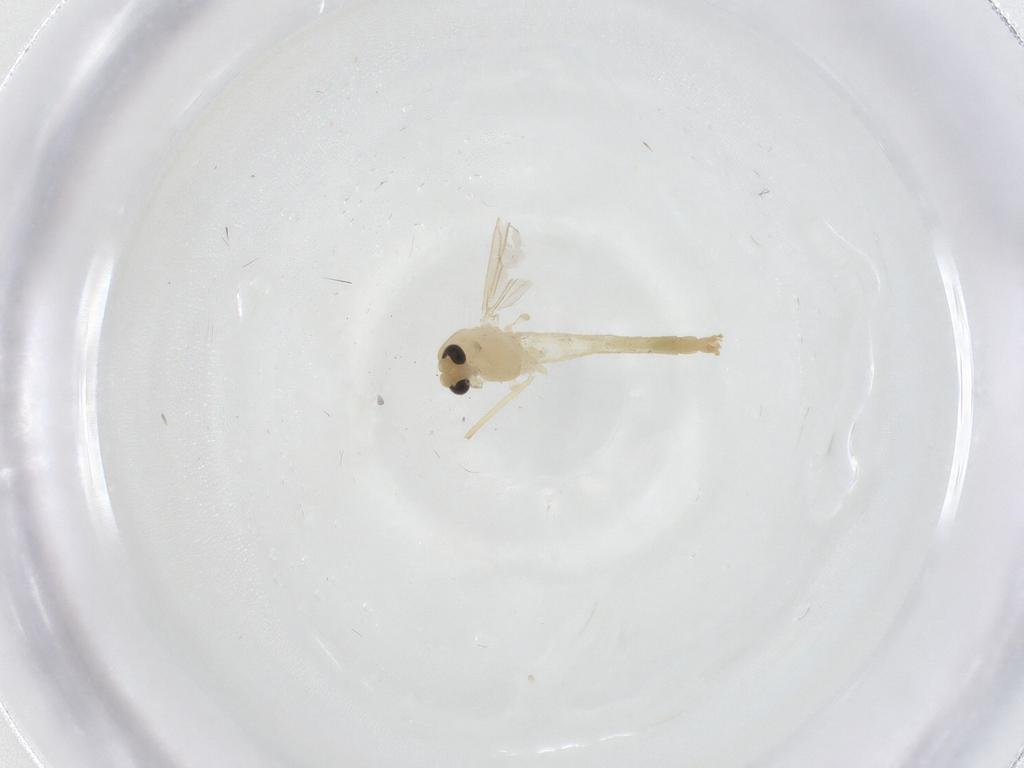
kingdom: Animalia
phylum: Arthropoda
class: Insecta
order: Diptera
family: Chironomidae
